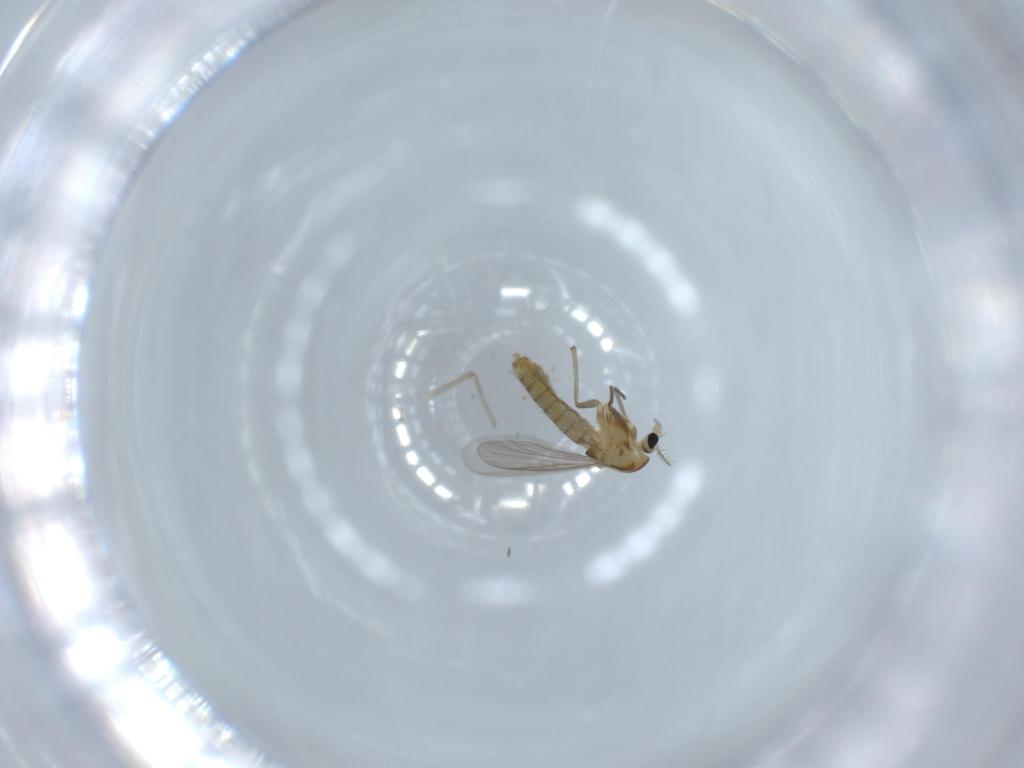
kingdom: Animalia
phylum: Arthropoda
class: Insecta
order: Diptera
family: Chironomidae
